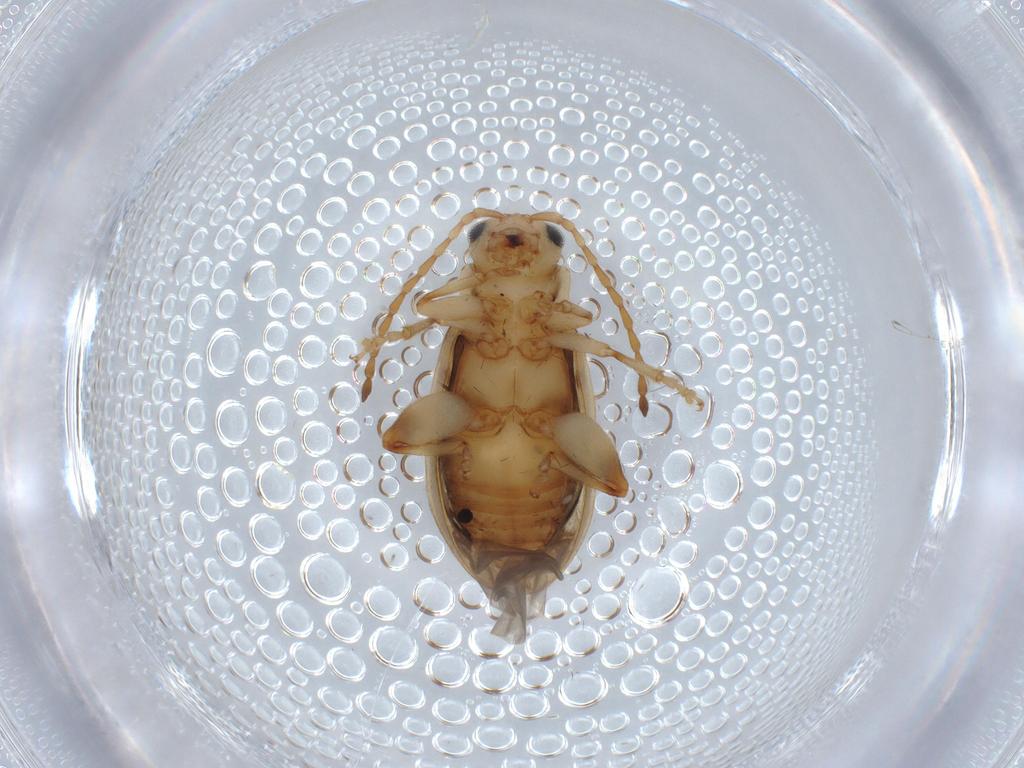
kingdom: Animalia
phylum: Arthropoda
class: Insecta
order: Coleoptera
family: Chrysomelidae
